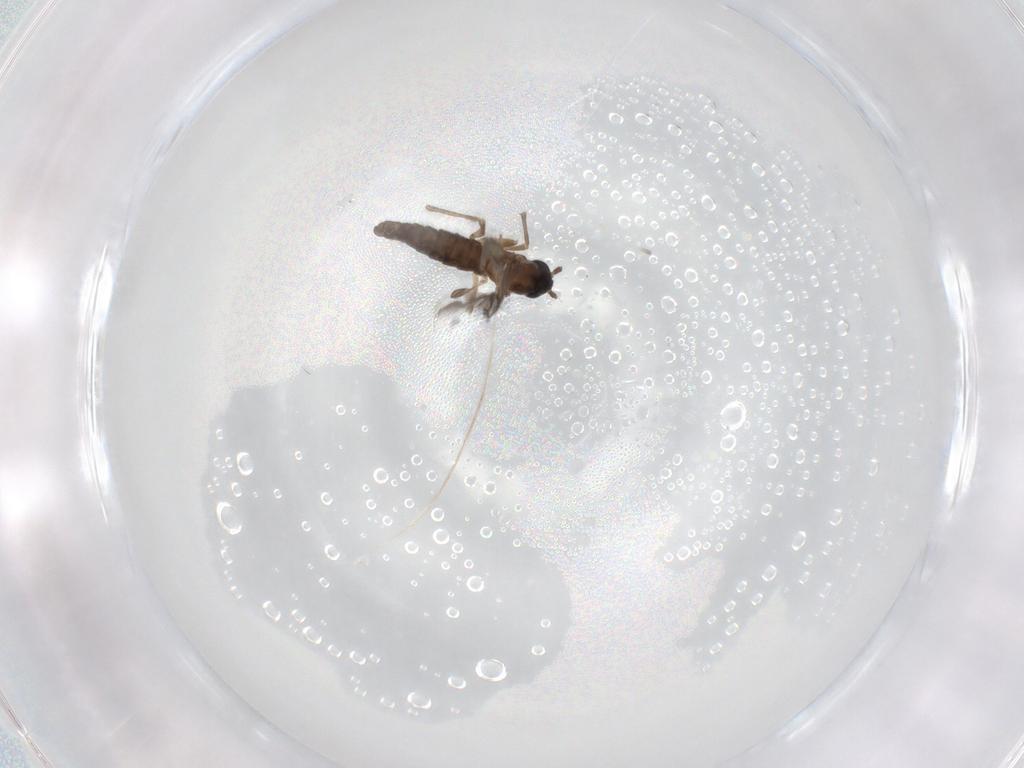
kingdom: Animalia
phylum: Arthropoda
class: Insecta
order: Diptera
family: Sciaridae
